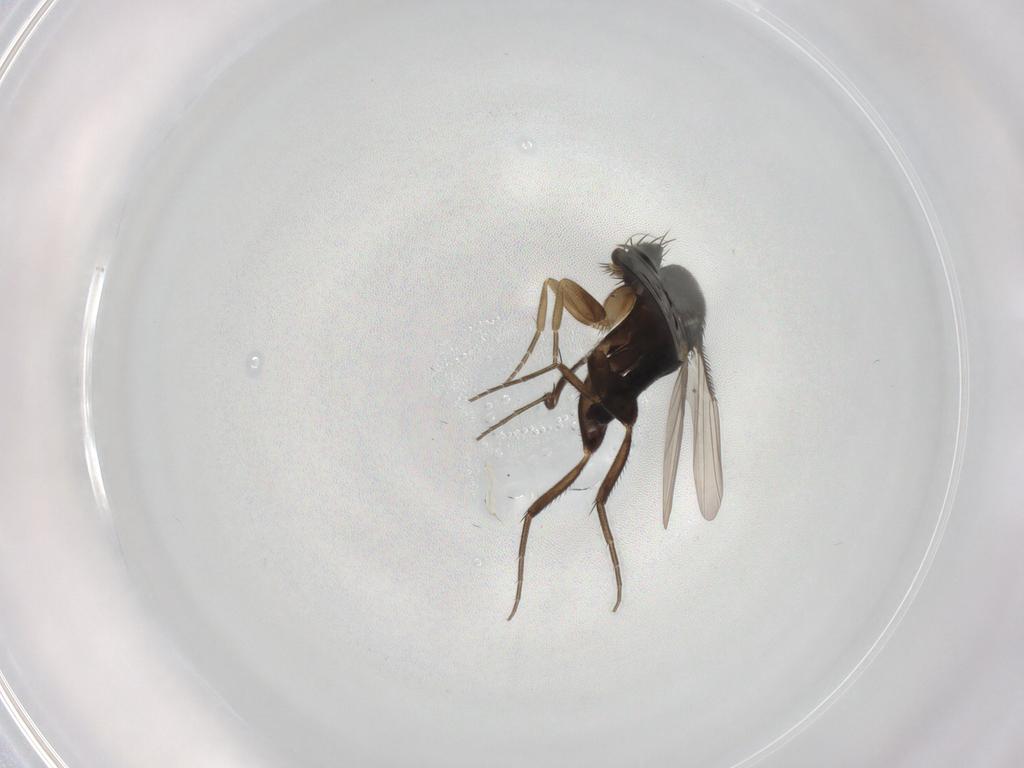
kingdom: Animalia
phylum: Arthropoda
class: Insecta
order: Diptera
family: Phoridae
